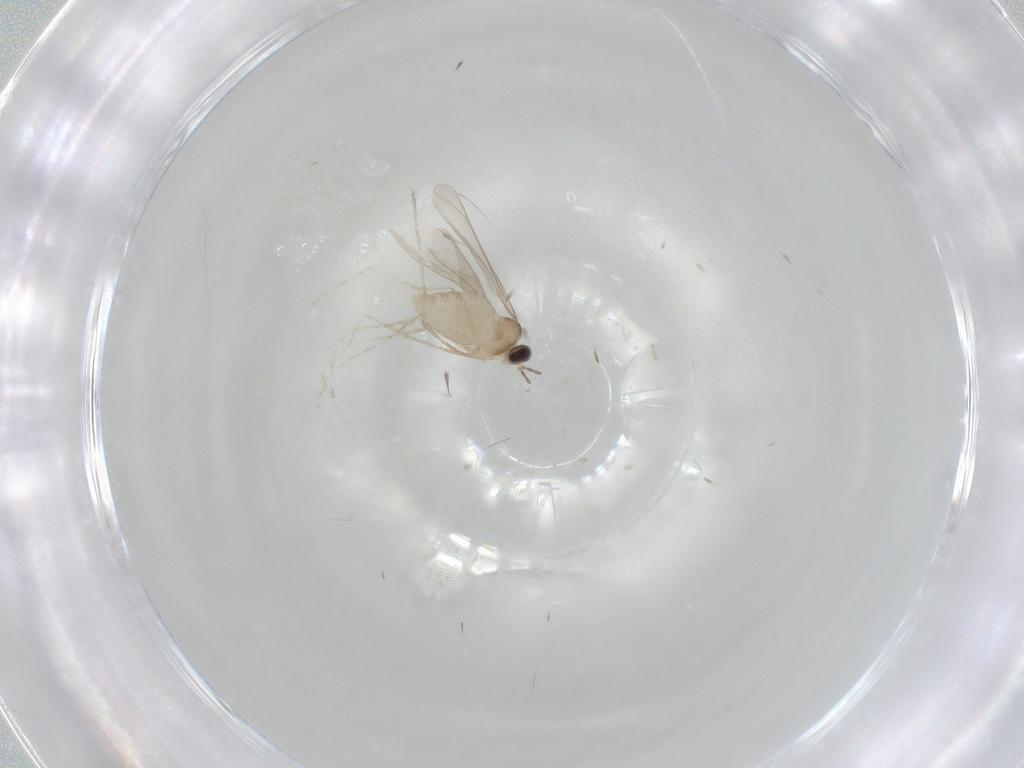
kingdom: Animalia
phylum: Arthropoda
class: Insecta
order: Diptera
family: Cecidomyiidae
